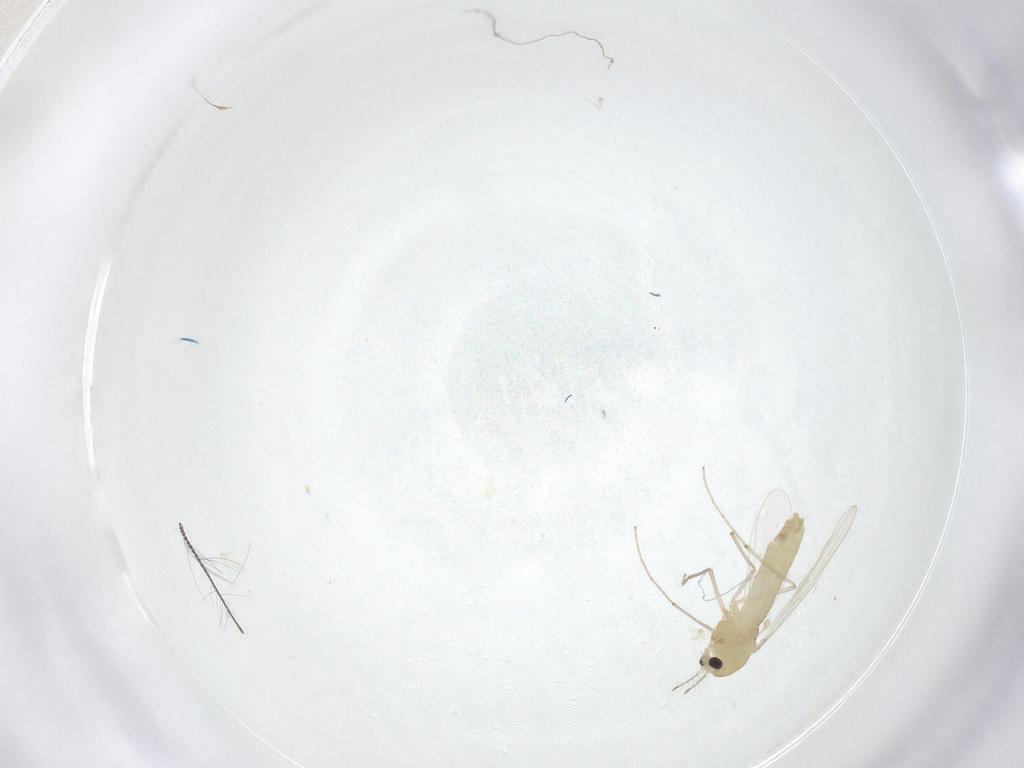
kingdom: Animalia
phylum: Arthropoda
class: Insecta
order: Diptera
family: Chironomidae
